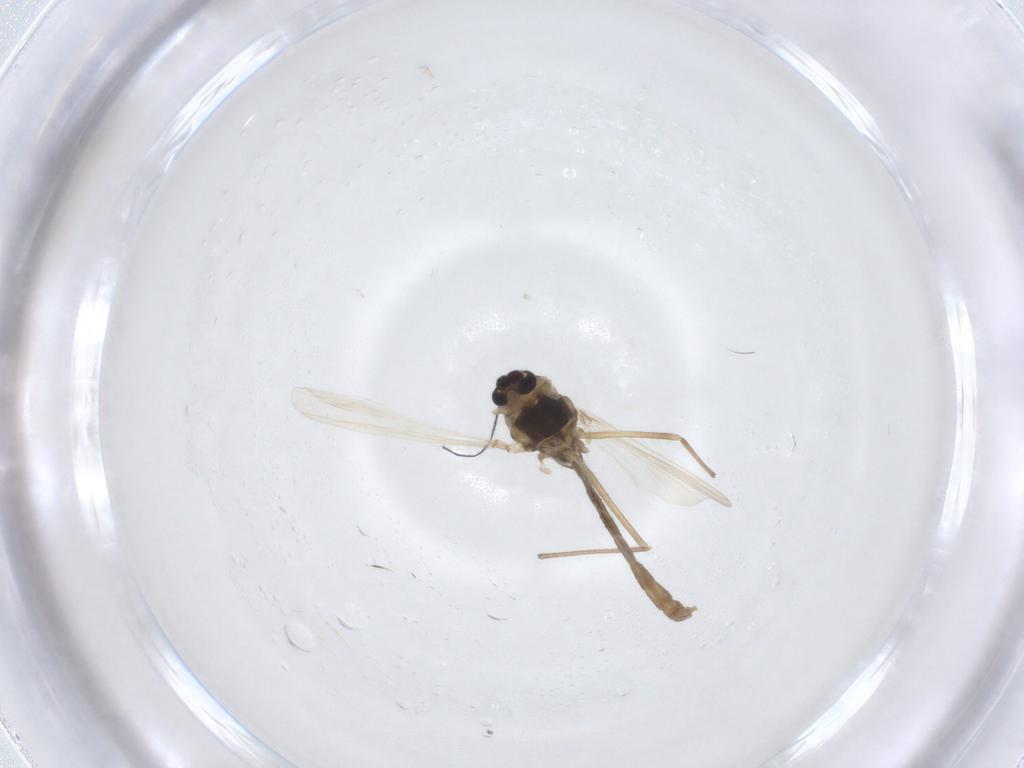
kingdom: Animalia
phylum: Arthropoda
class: Insecta
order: Diptera
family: Chironomidae
